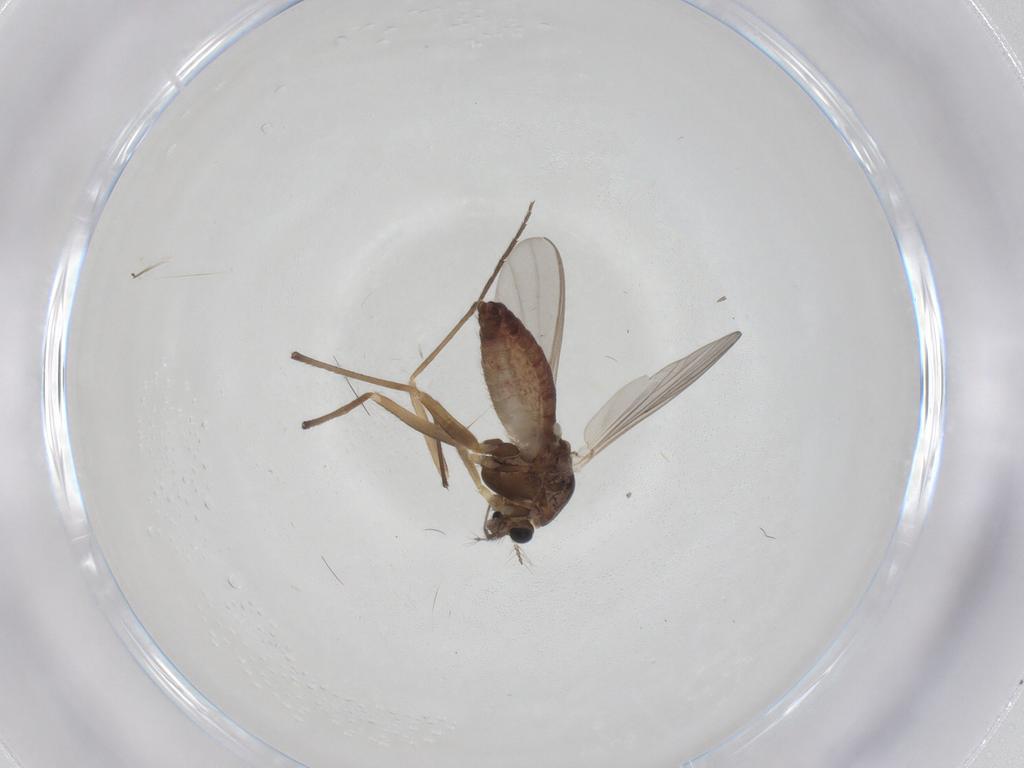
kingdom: Animalia
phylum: Arthropoda
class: Insecta
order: Diptera
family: Chironomidae
